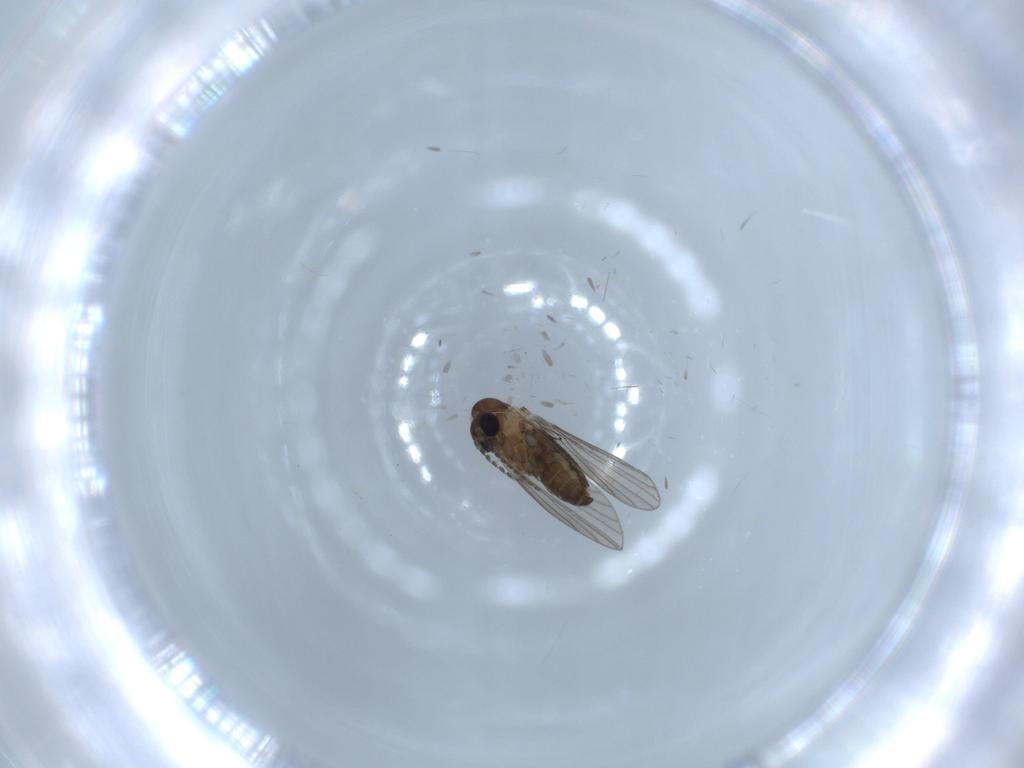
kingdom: Animalia
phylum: Arthropoda
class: Insecta
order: Diptera
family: Psychodidae
